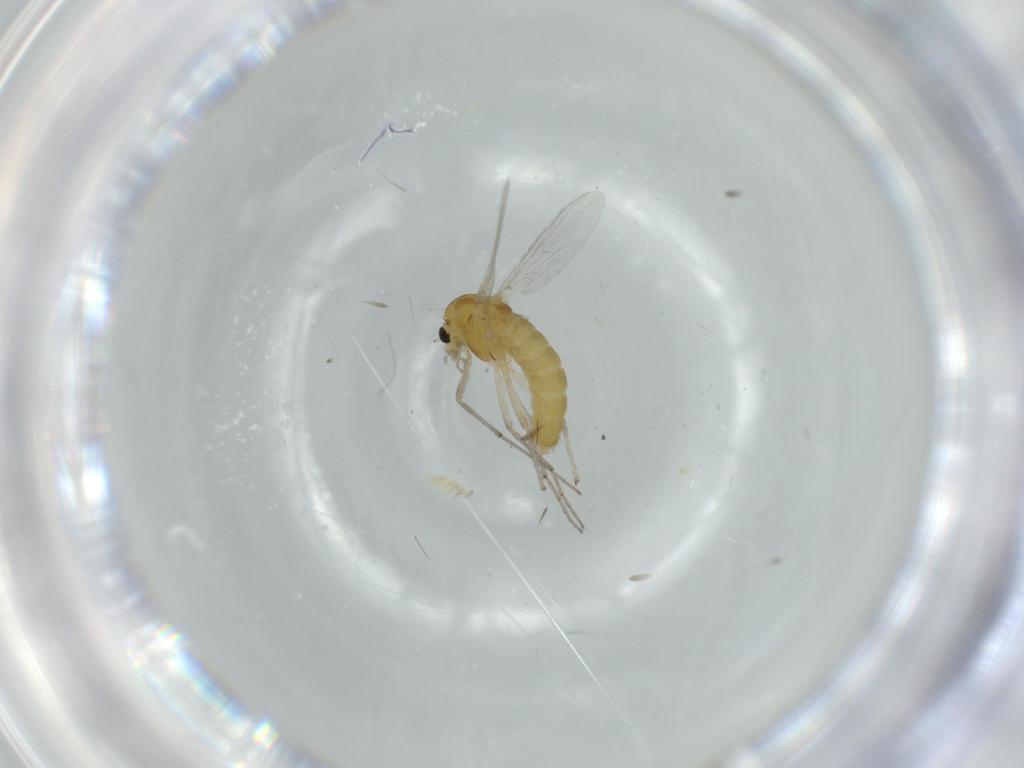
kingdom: Animalia
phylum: Arthropoda
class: Insecta
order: Diptera
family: Chironomidae
